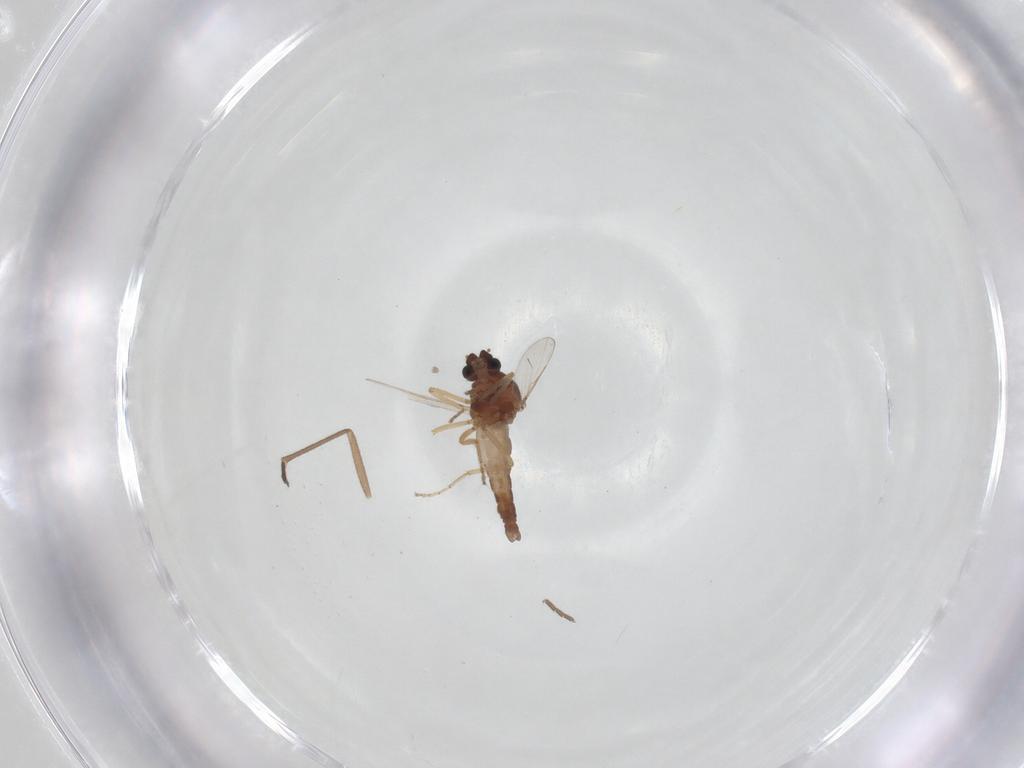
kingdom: Animalia
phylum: Arthropoda
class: Insecta
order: Diptera
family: Ceratopogonidae
